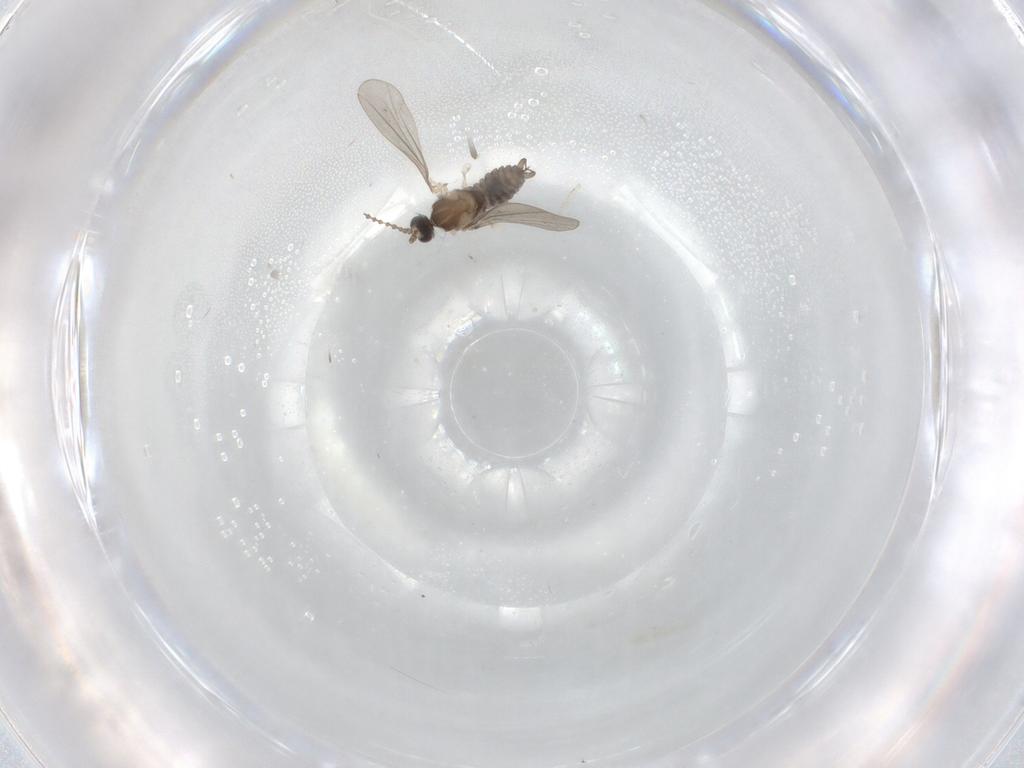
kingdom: Animalia
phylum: Arthropoda
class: Insecta
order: Diptera
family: Cecidomyiidae
